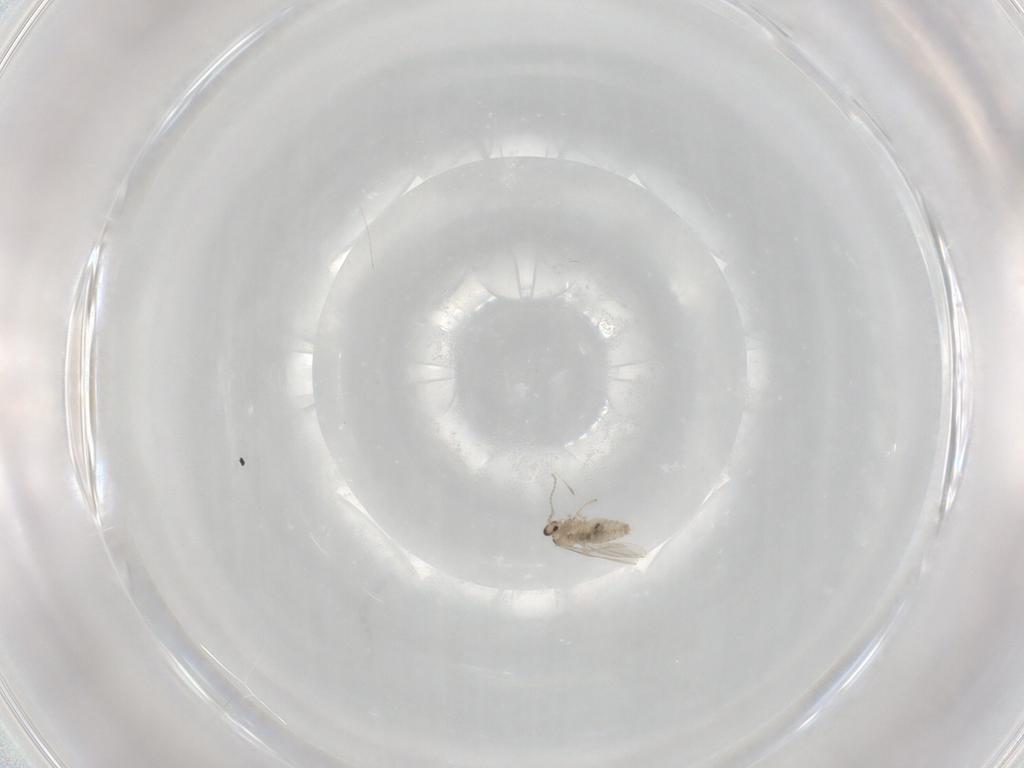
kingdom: Animalia
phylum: Arthropoda
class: Insecta
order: Diptera
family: Cecidomyiidae
